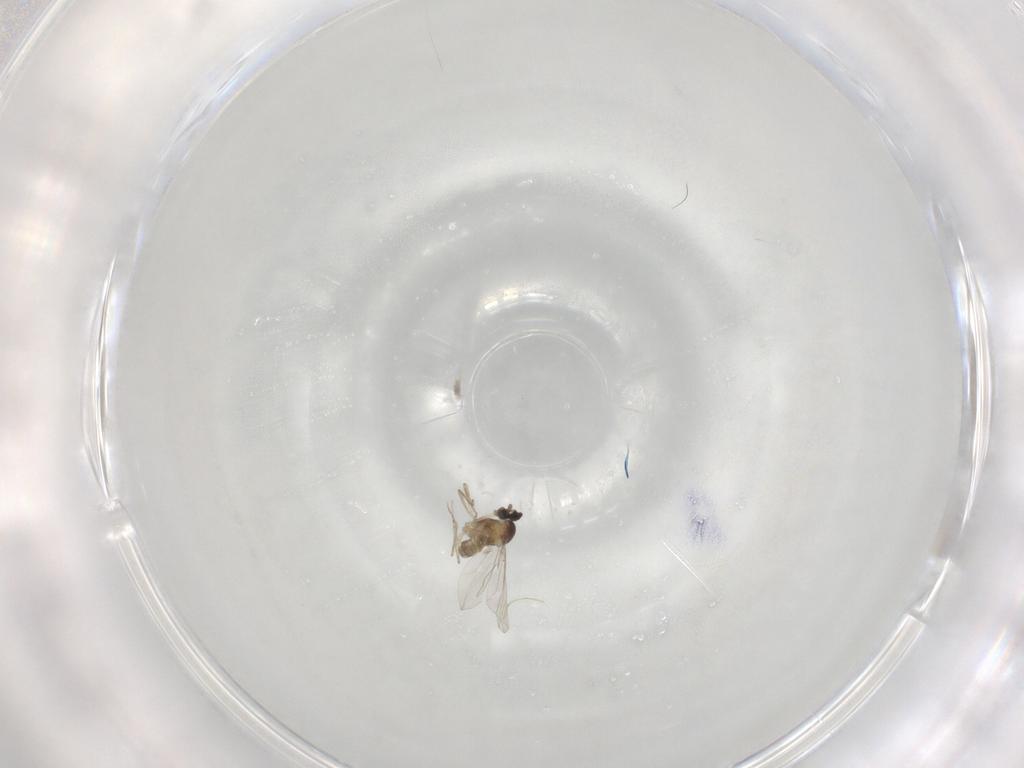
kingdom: Animalia
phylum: Arthropoda
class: Insecta
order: Diptera
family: Cecidomyiidae
